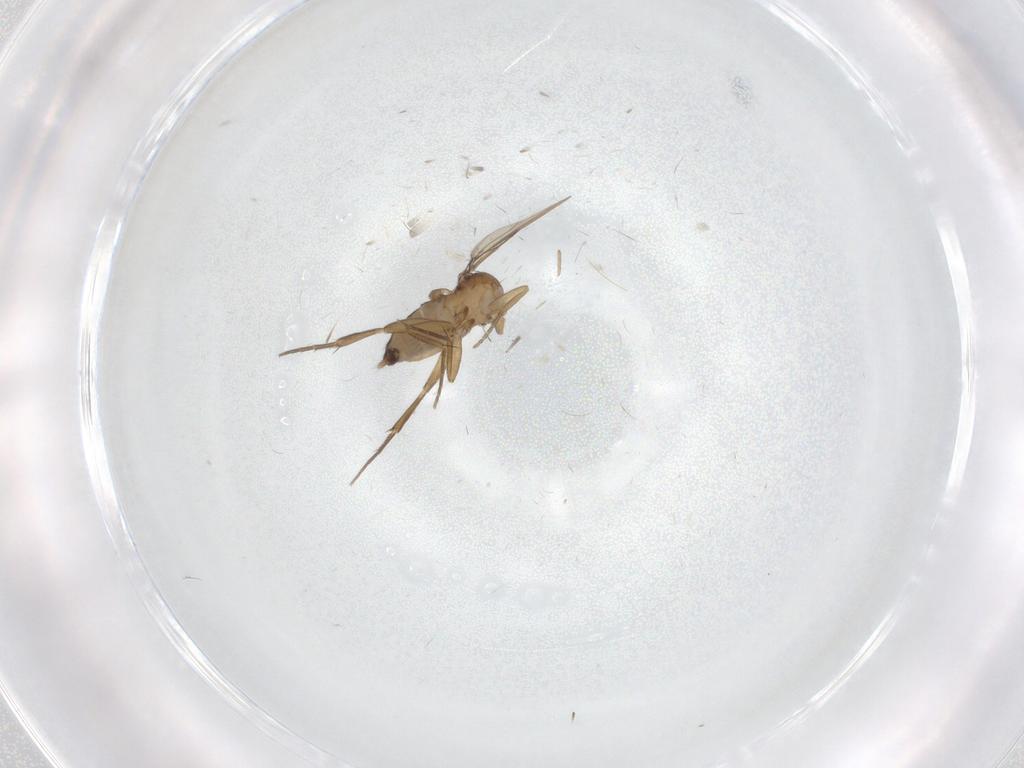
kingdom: Animalia
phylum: Arthropoda
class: Insecta
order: Diptera
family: Phoridae
